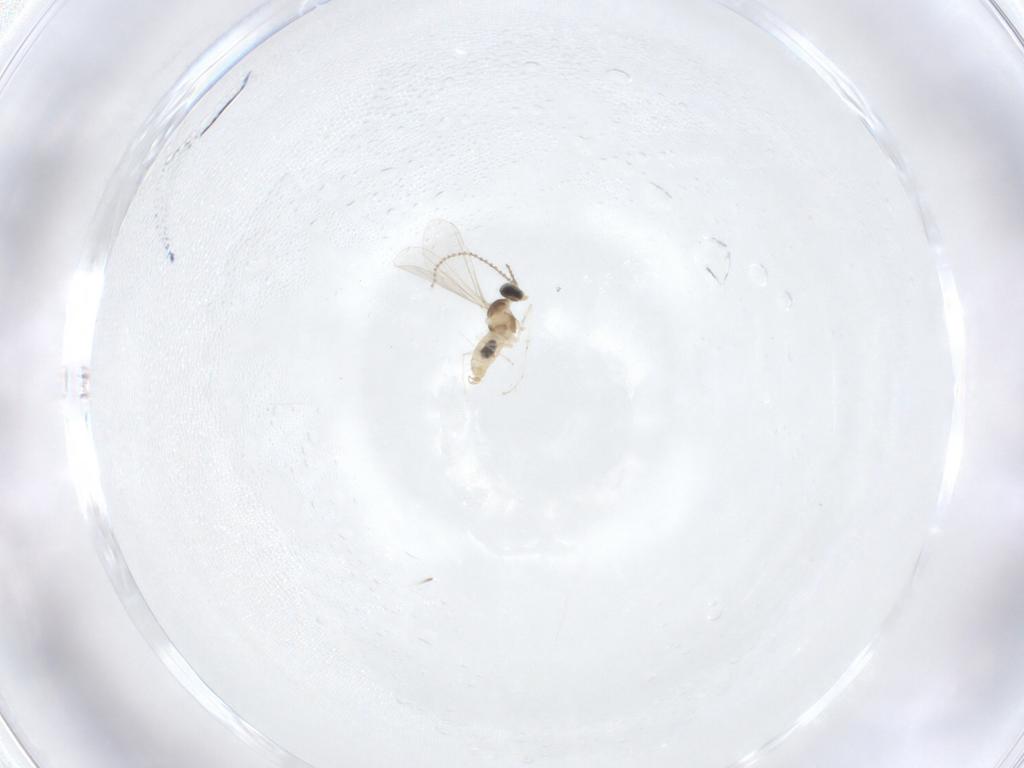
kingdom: Animalia
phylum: Arthropoda
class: Insecta
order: Diptera
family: Cecidomyiidae
